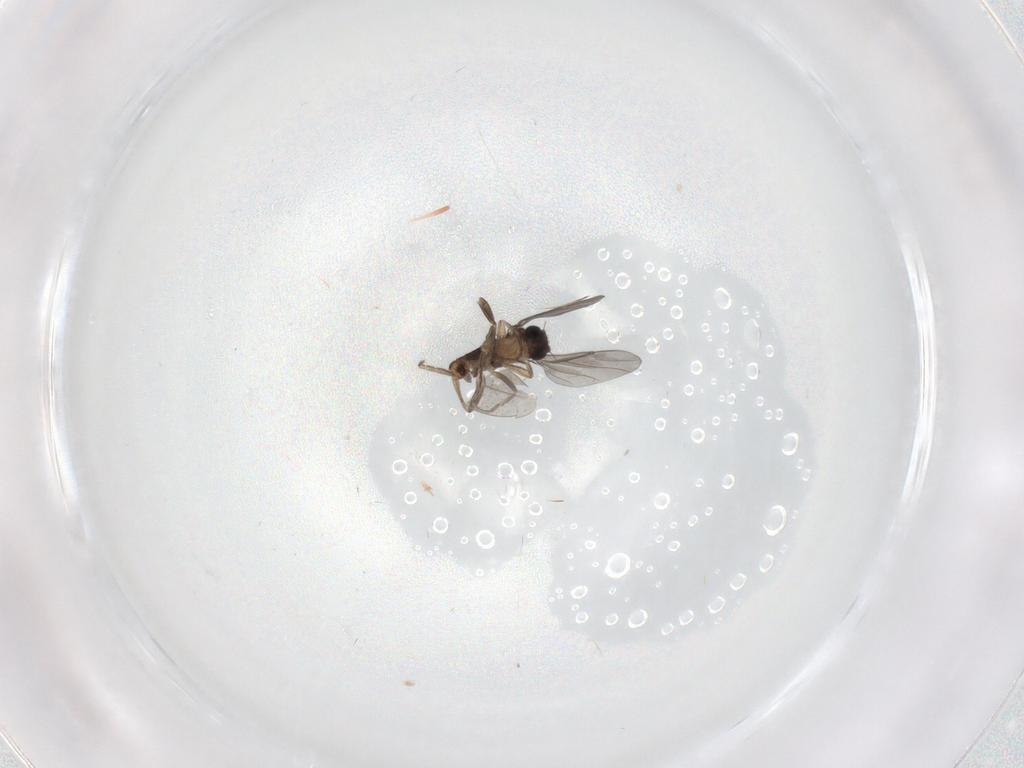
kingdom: Animalia
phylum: Arthropoda
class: Insecta
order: Diptera
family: Cecidomyiidae
